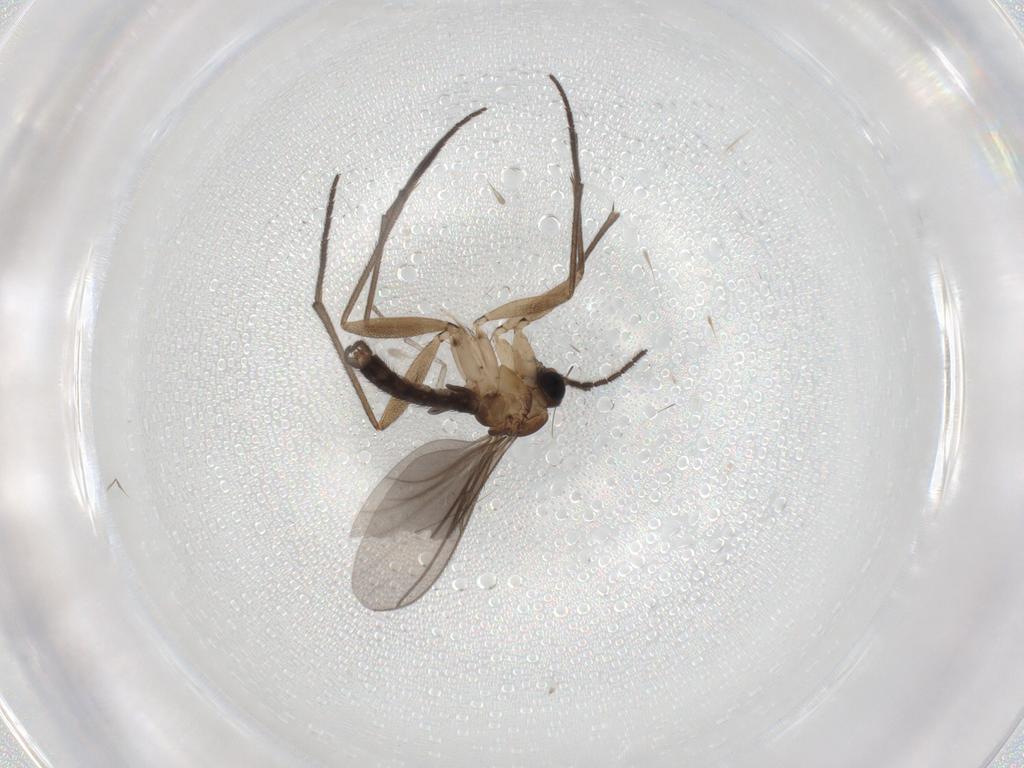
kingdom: Animalia
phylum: Arthropoda
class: Insecta
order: Diptera
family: Sciaridae
